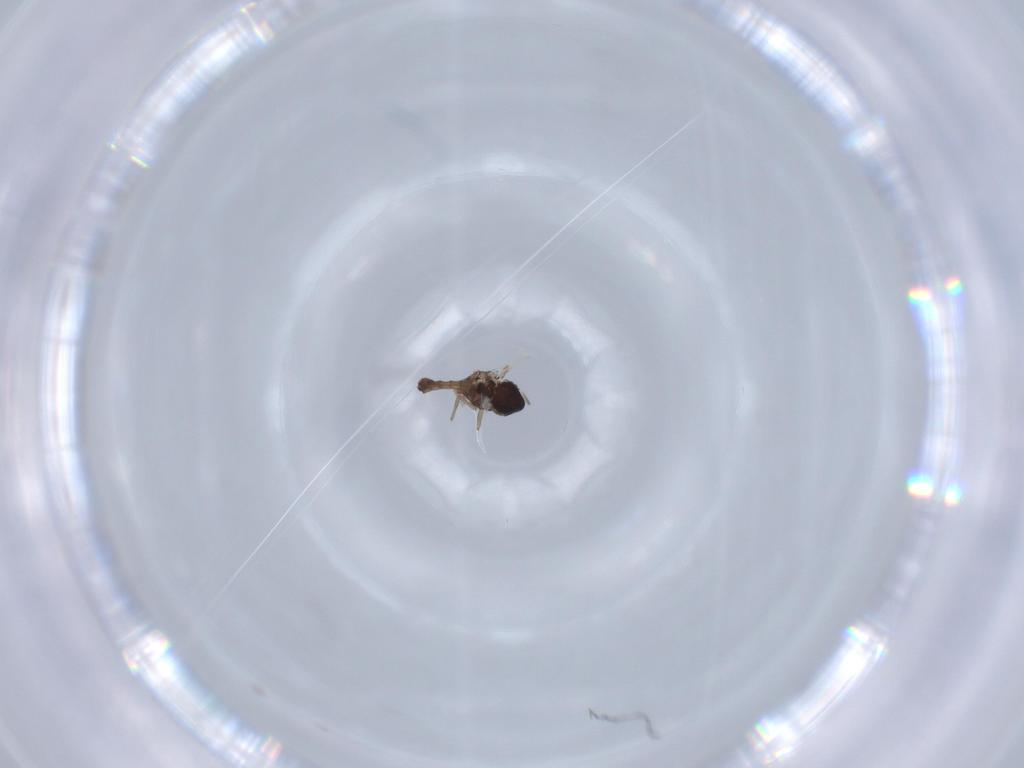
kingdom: Animalia
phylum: Arthropoda
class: Insecta
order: Diptera
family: Chironomidae
